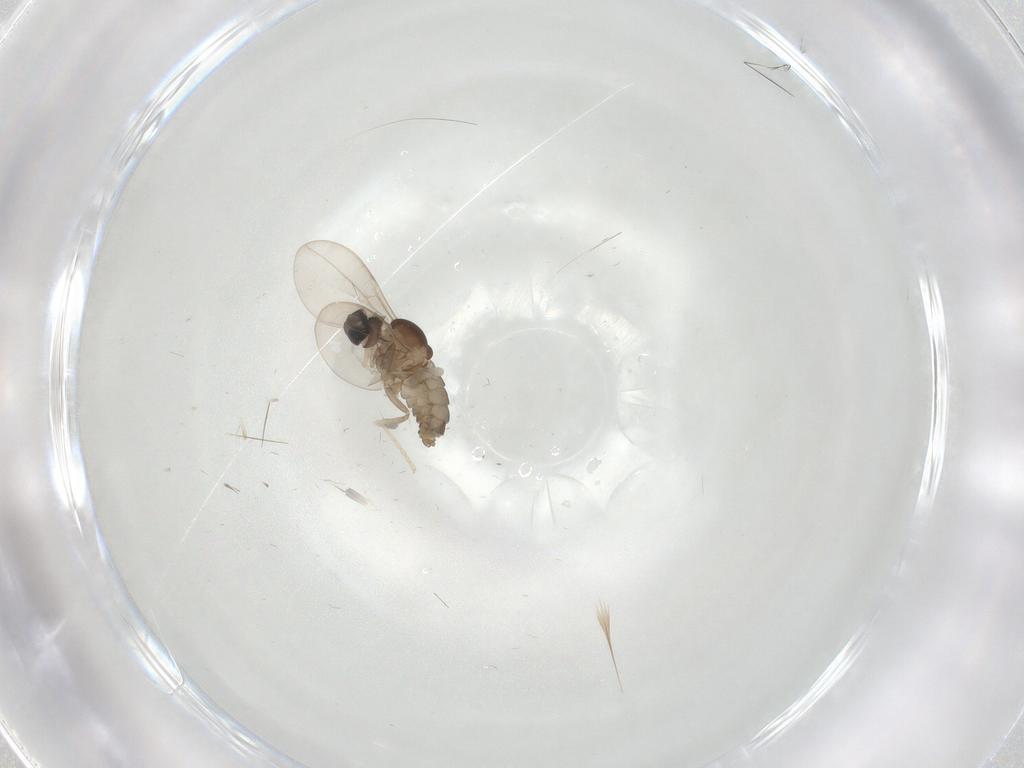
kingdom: Animalia
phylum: Arthropoda
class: Insecta
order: Diptera
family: Cecidomyiidae
